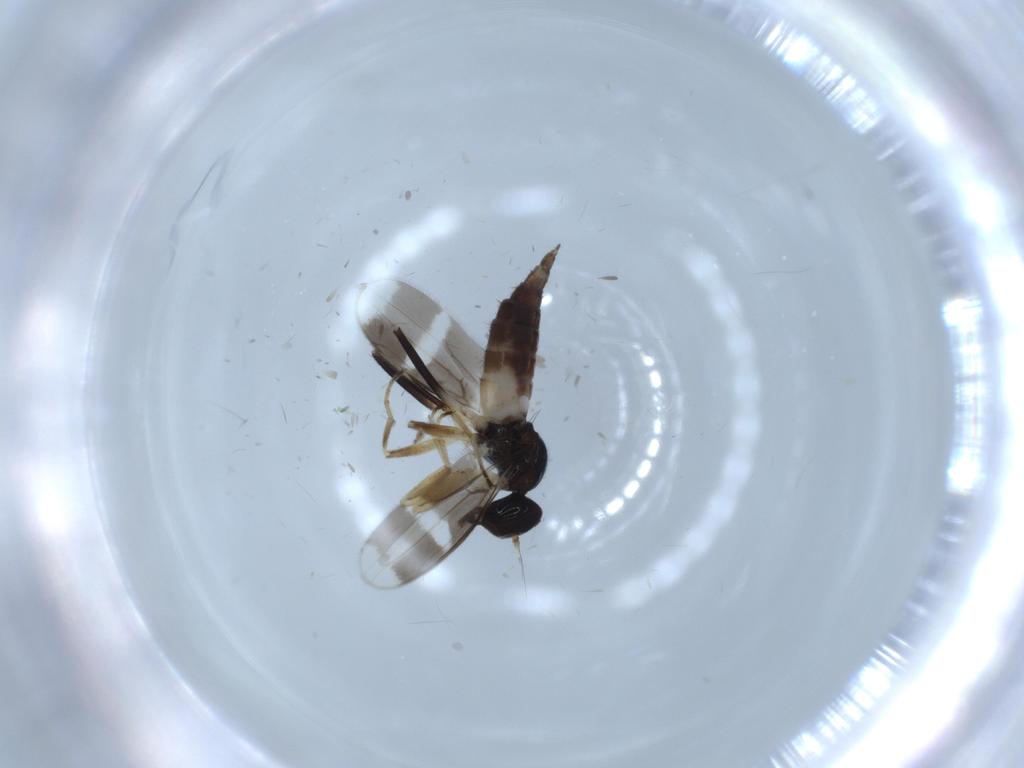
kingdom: Animalia
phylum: Arthropoda
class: Insecta
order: Diptera
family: Hybotidae
